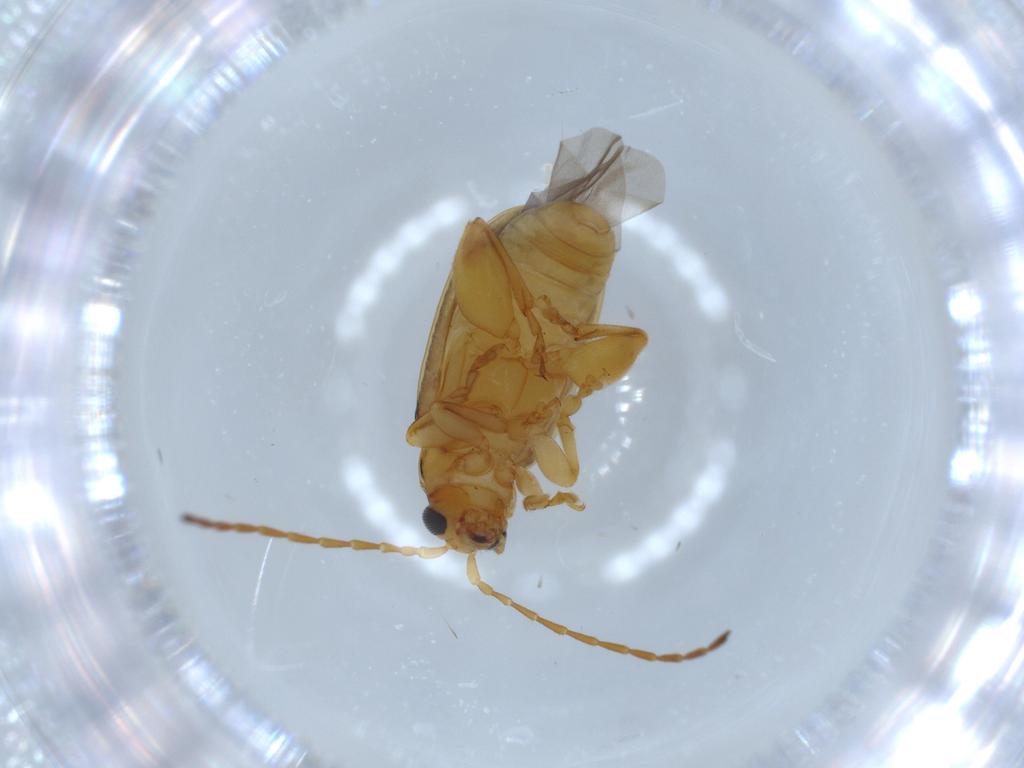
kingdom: Animalia
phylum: Arthropoda
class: Insecta
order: Coleoptera
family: Chrysomelidae
